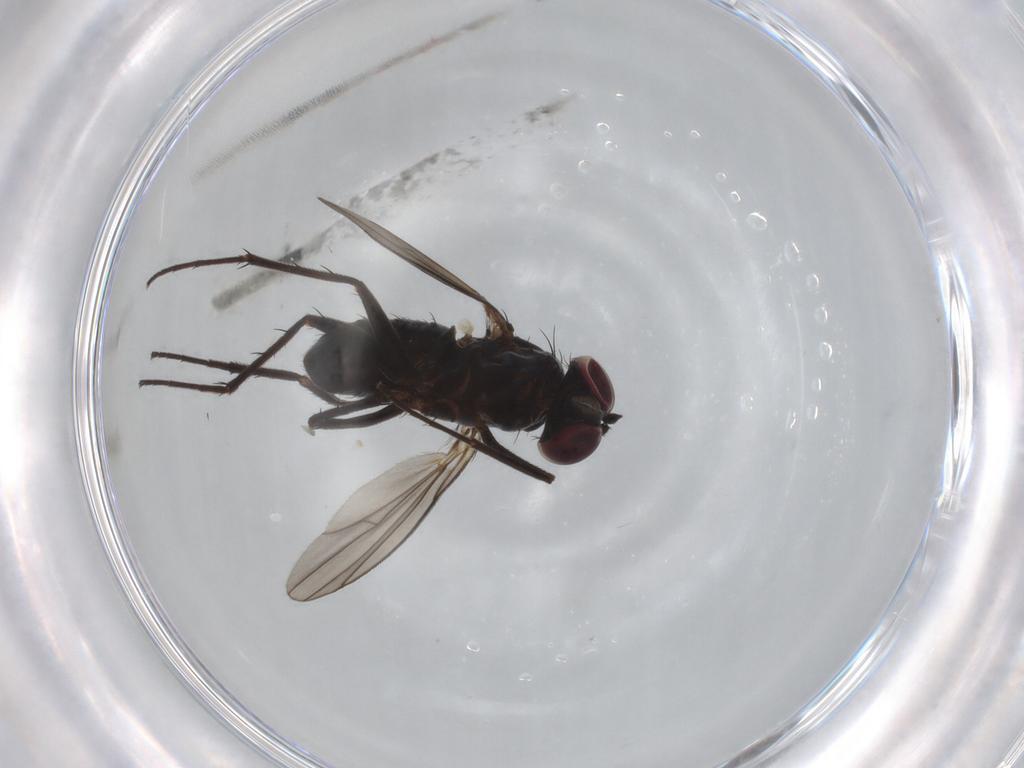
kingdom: Animalia
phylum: Arthropoda
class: Insecta
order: Diptera
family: Dolichopodidae
